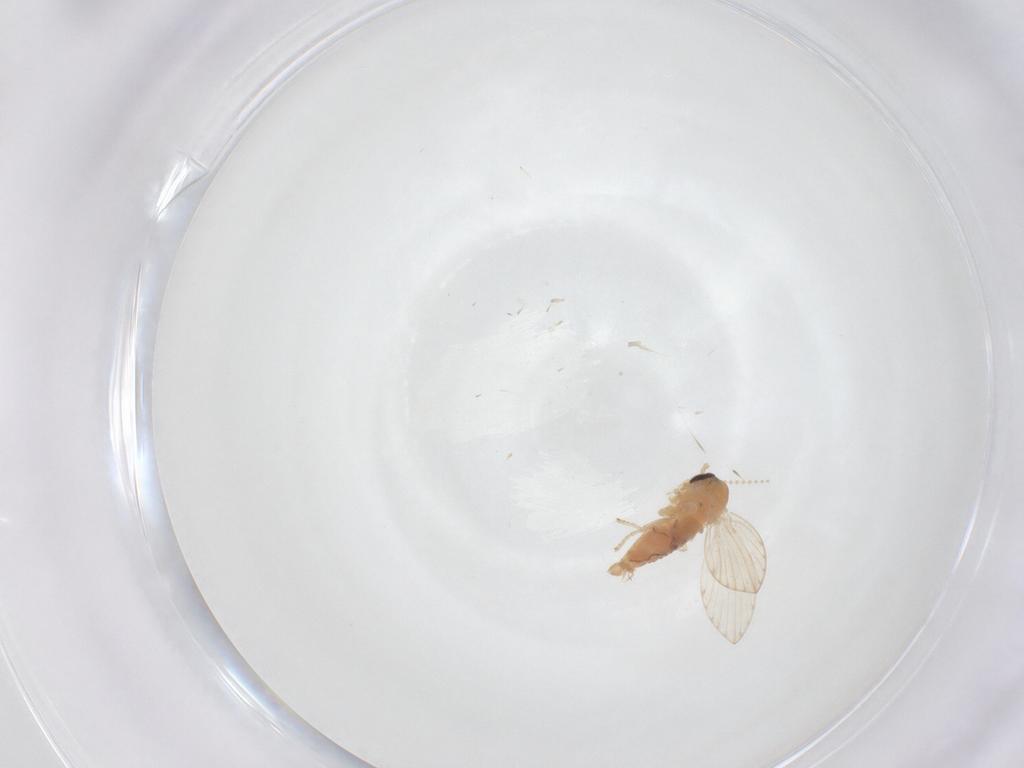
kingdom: Animalia
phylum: Arthropoda
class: Insecta
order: Diptera
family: Psychodidae
